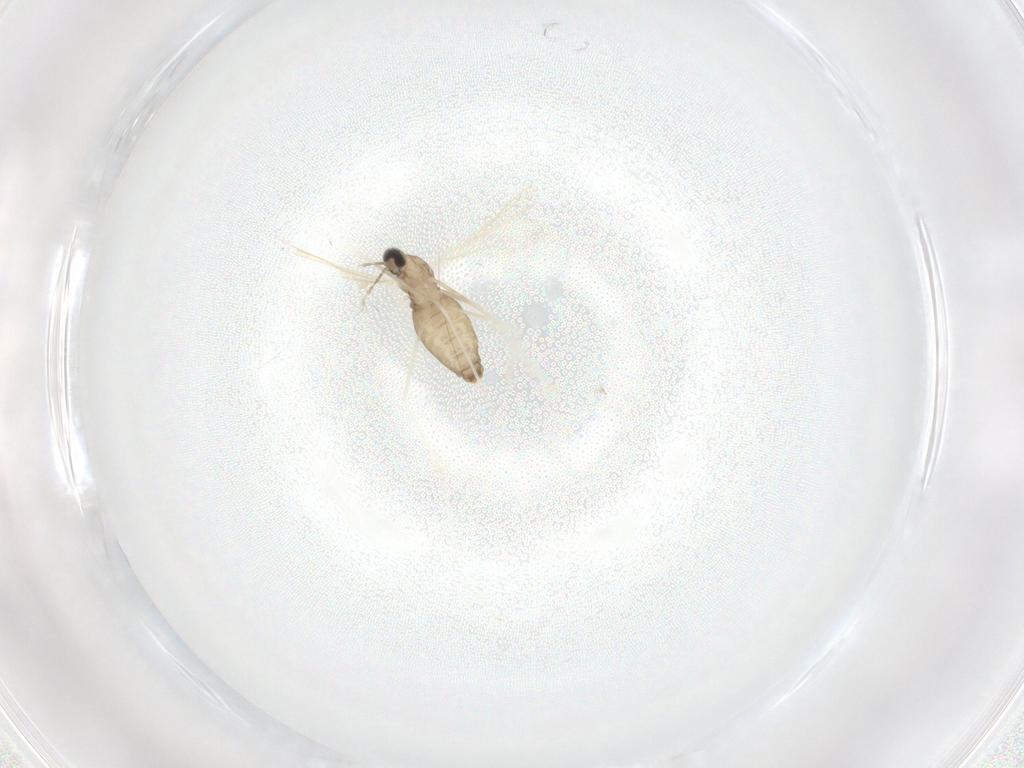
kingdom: Animalia
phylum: Arthropoda
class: Insecta
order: Diptera
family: Cecidomyiidae
